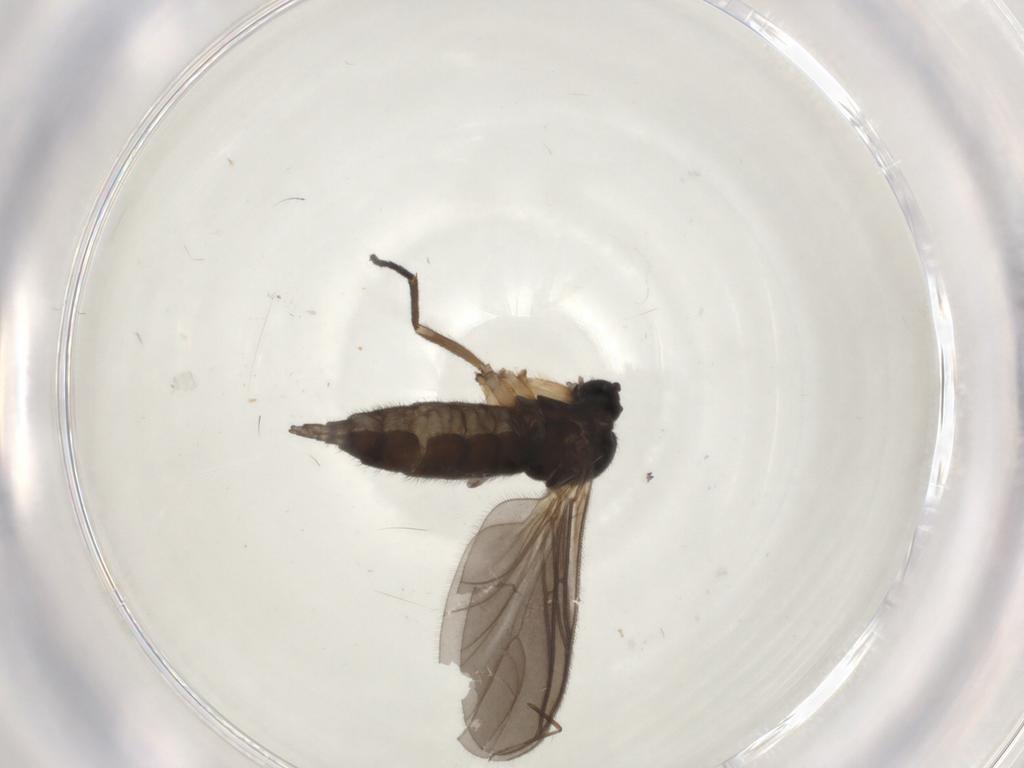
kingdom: Animalia
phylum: Arthropoda
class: Insecta
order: Diptera
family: Sciaridae
